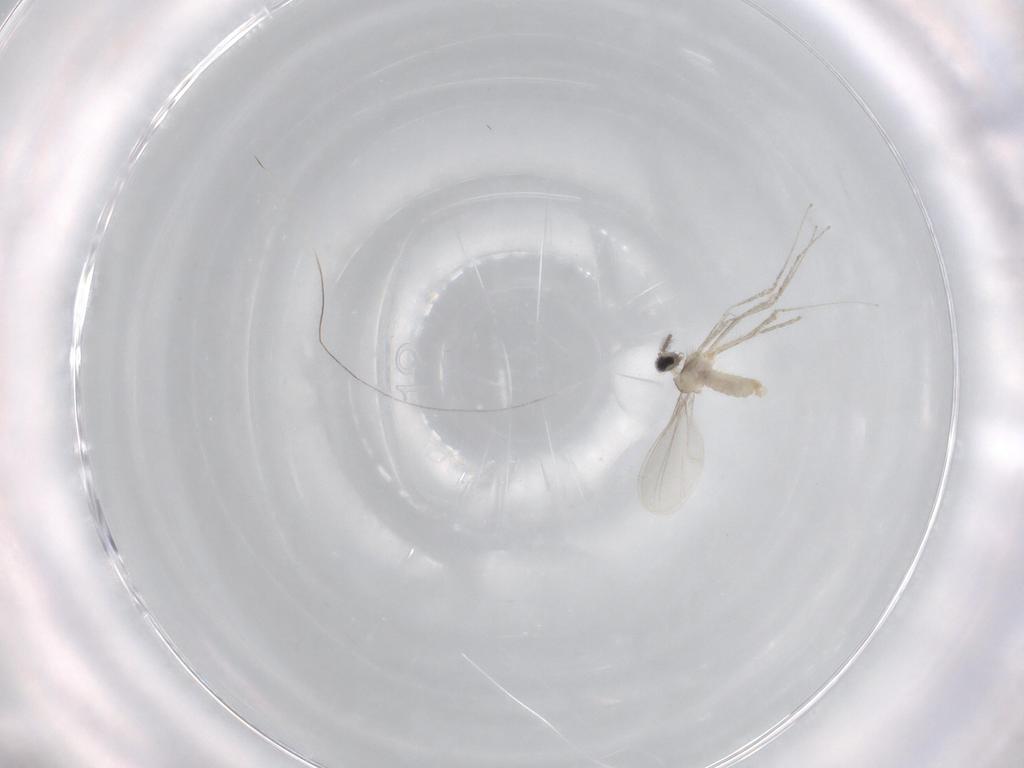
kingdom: Animalia
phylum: Arthropoda
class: Insecta
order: Diptera
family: Cecidomyiidae
